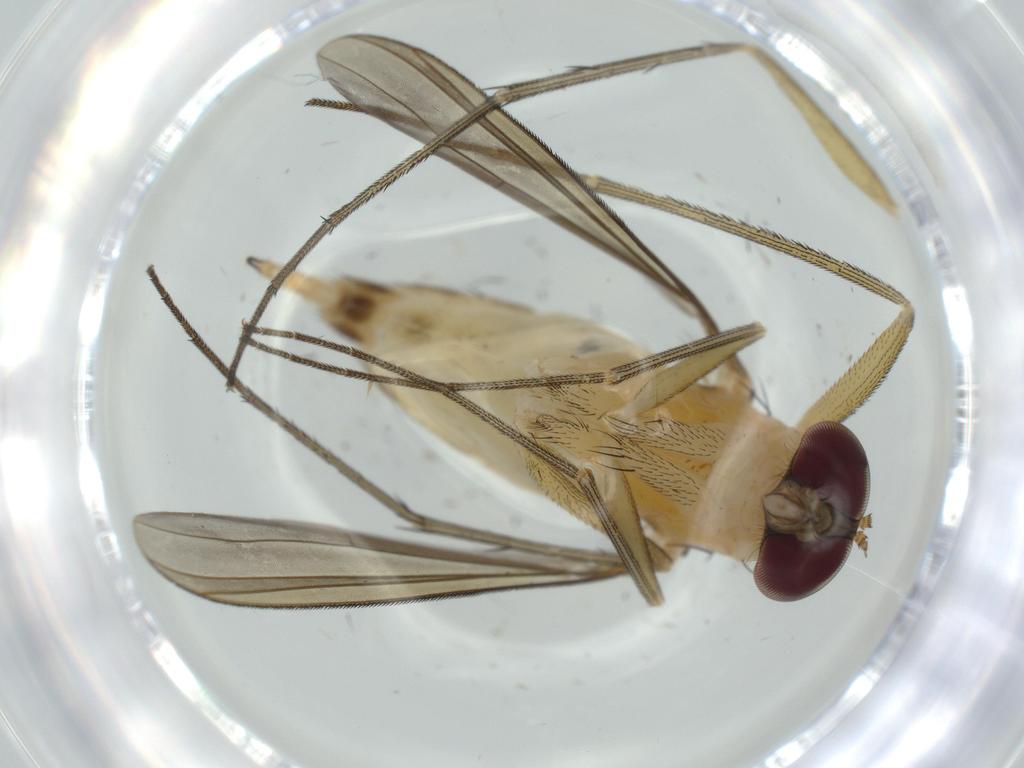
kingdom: Animalia
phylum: Arthropoda
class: Insecta
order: Diptera
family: Dolichopodidae
